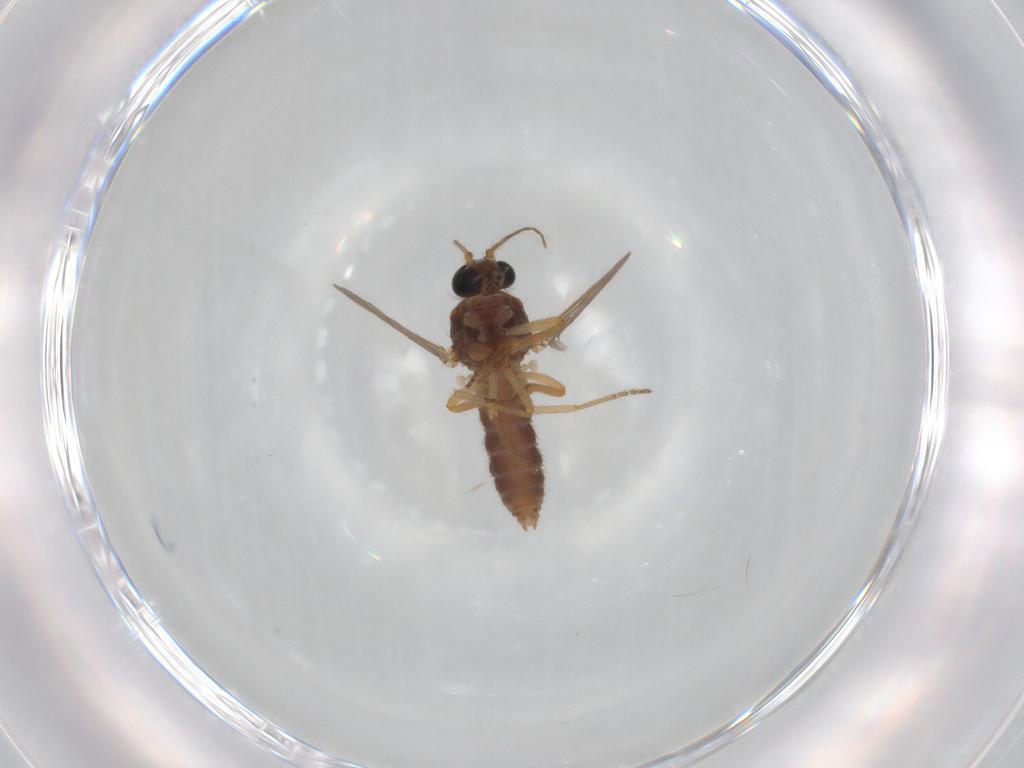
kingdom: Animalia
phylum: Arthropoda
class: Insecta
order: Diptera
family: Ceratopogonidae
